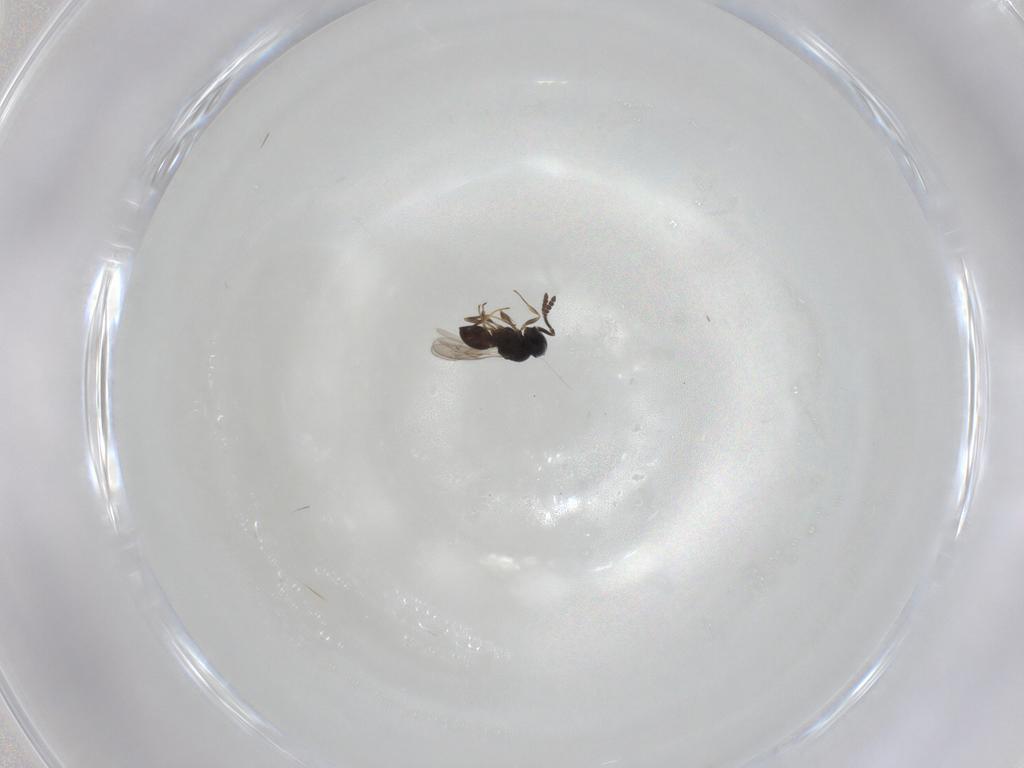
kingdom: Animalia
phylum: Arthropoda
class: Insecta
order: Hymenoptera
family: Scelionidae
